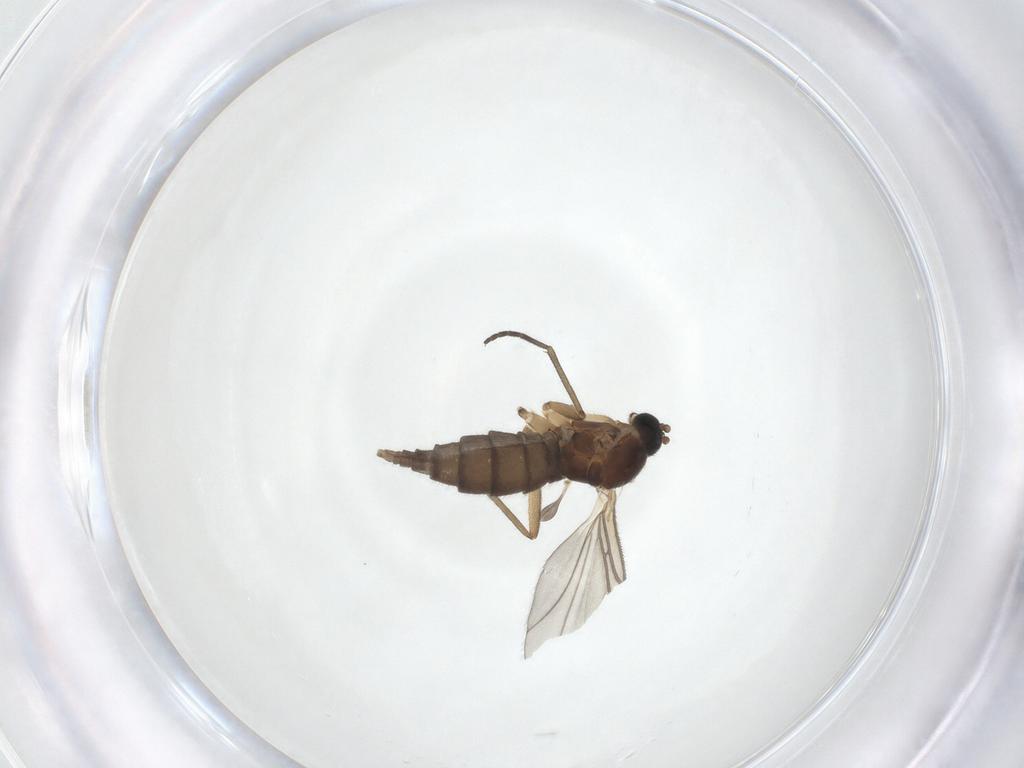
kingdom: Animalia
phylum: Arthropoda
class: Insecta
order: Diptera
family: Sciaridae
